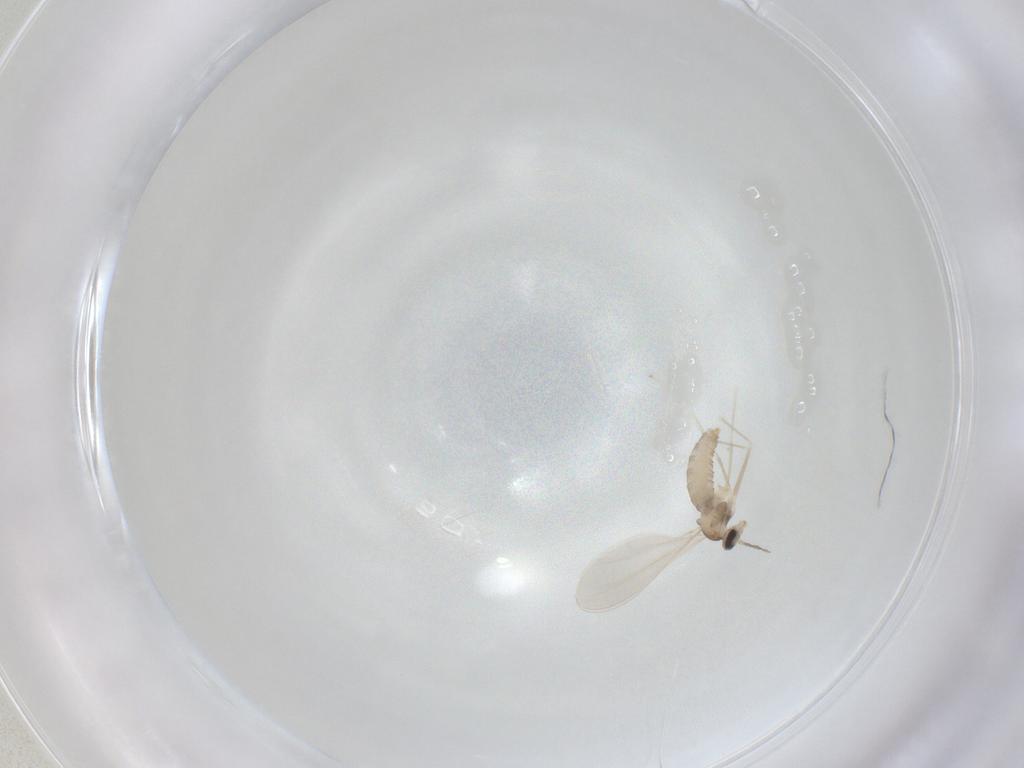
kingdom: Animalia
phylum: Arthropoda
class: Insecta
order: Diptera
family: Cecidomyiidae
